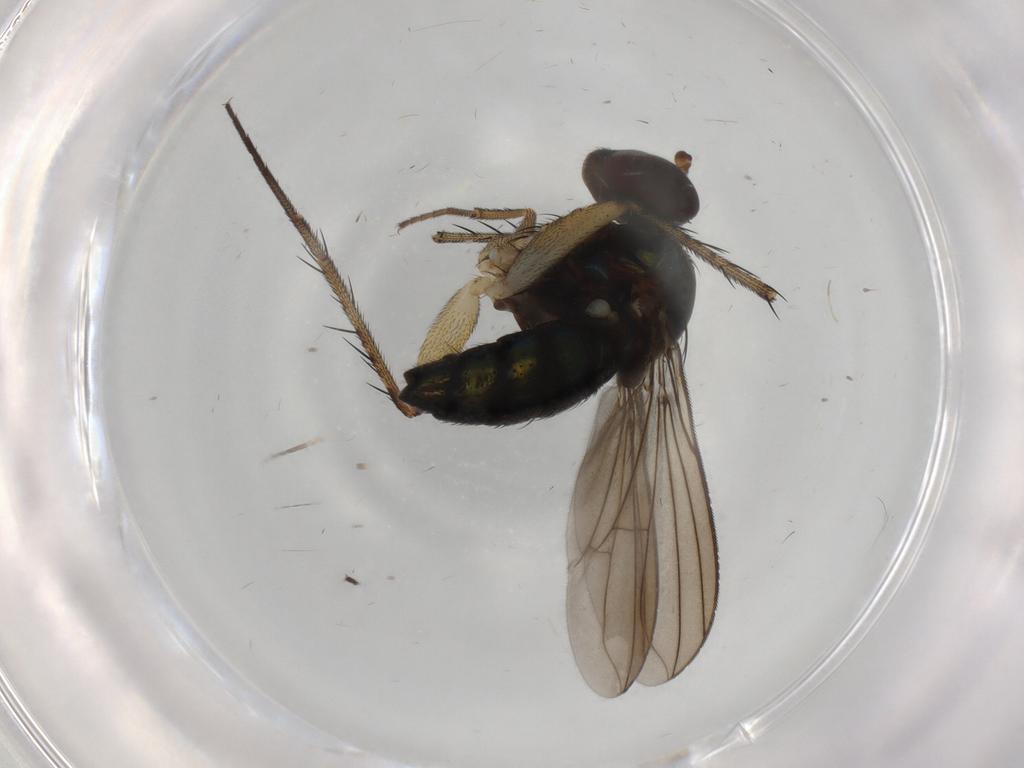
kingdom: Animalia
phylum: Arthropoda
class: Insecta
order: Diptera
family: Dolichopodidae
